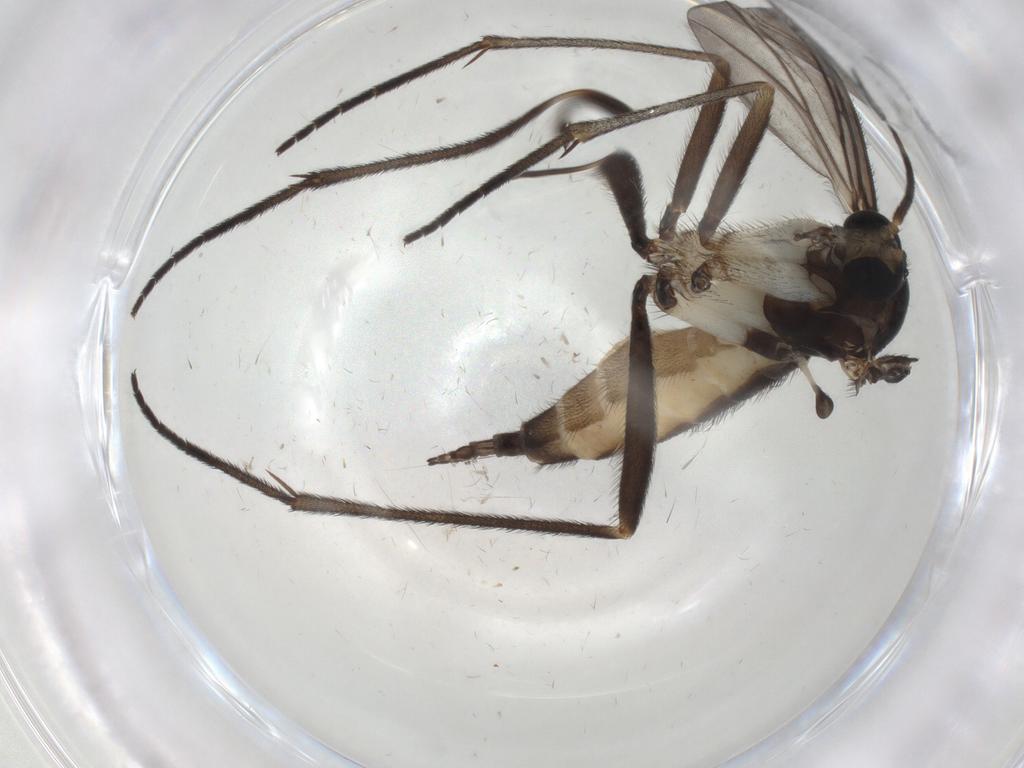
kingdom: Animalia
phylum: Arthropoda
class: Insecta
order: Diptera
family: Sciaridae
